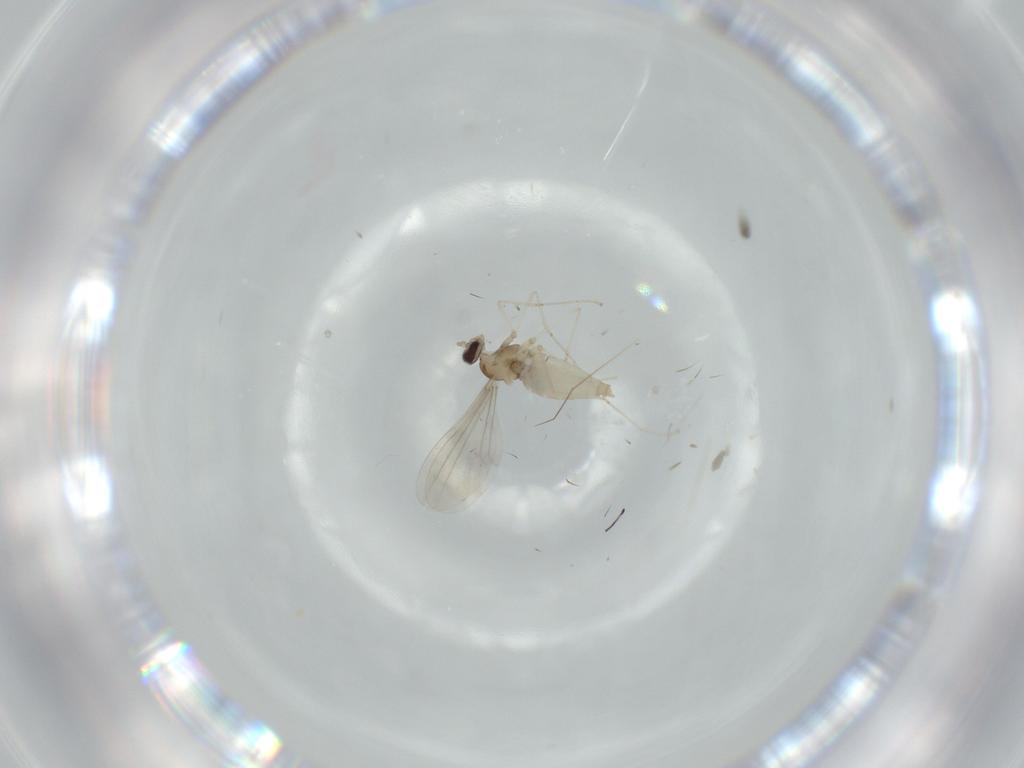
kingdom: Animalia
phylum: Arthropoda
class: Insecta
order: Diptera
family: Cecidomyiidae
